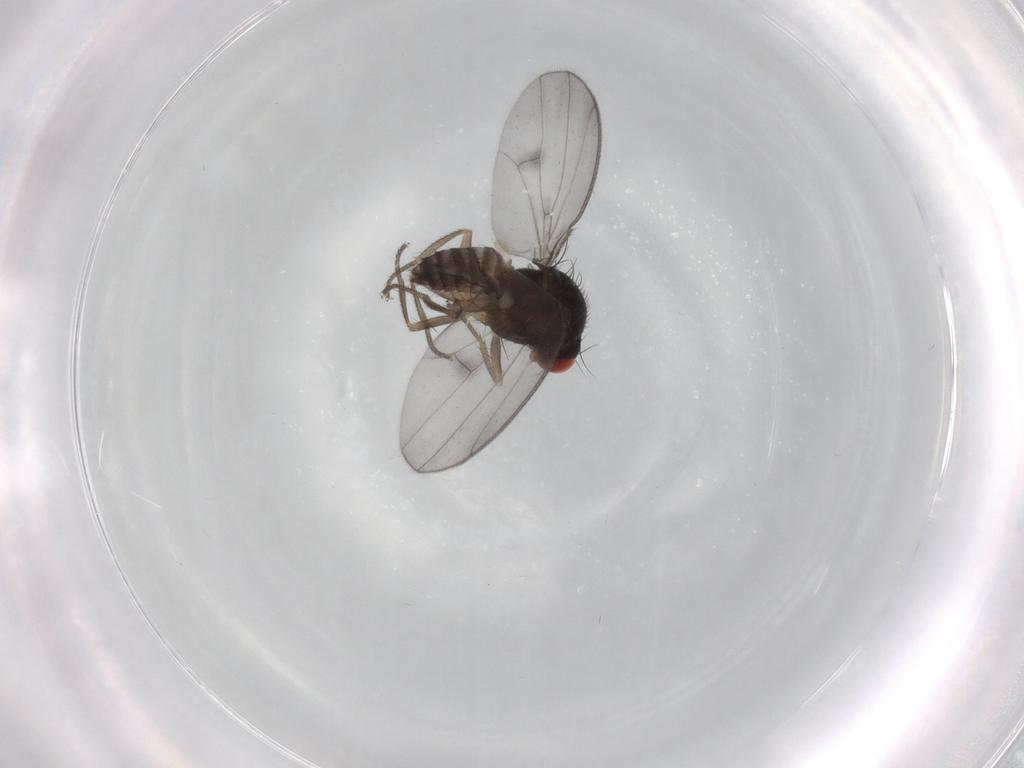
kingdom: Animalia
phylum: Arthropoda
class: Insecta
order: Diptera
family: Drosophilidae
